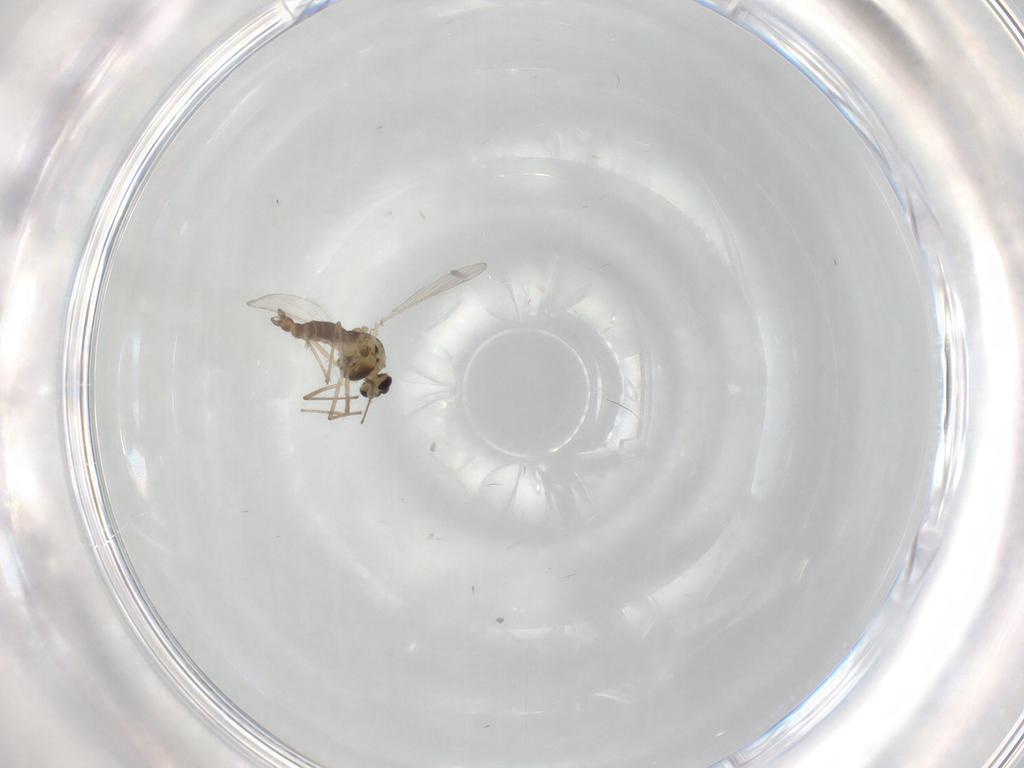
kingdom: Animalia
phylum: Arthropoda
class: Insecta
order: Diptera
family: Chironomidae
